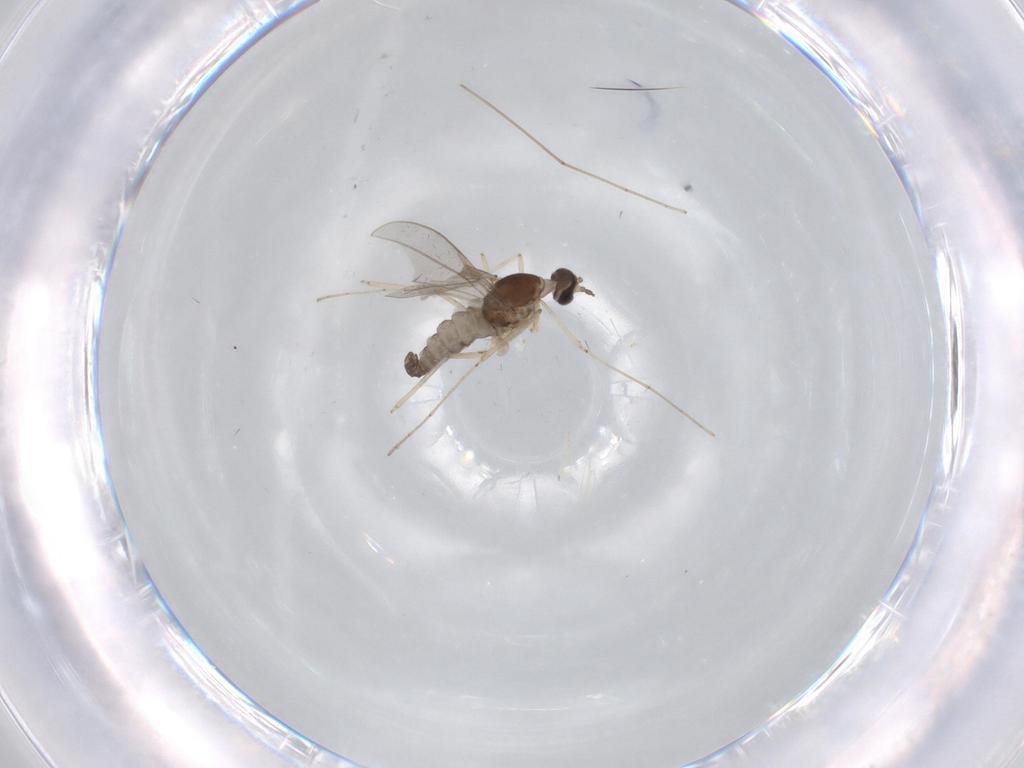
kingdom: Animalia
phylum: Arthropoda
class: Insecta
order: Diptera
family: Cecidomyiidae
